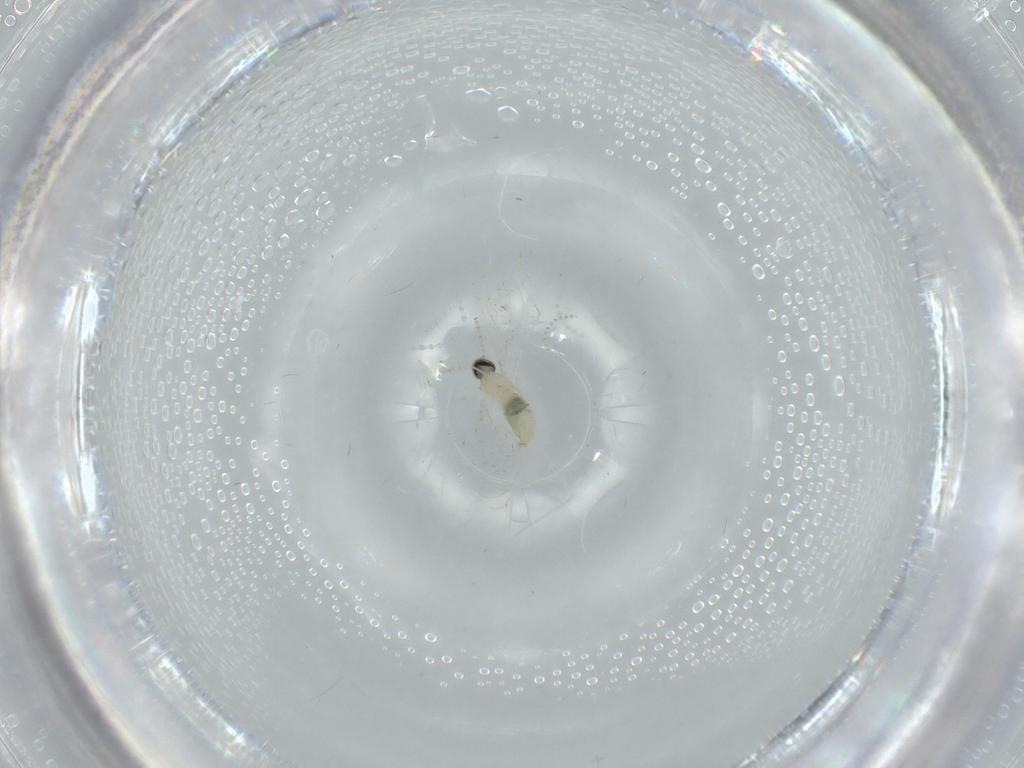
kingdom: Animalia
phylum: Arthropoda
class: Insecta
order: Diptera
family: Cecidomyiidae
